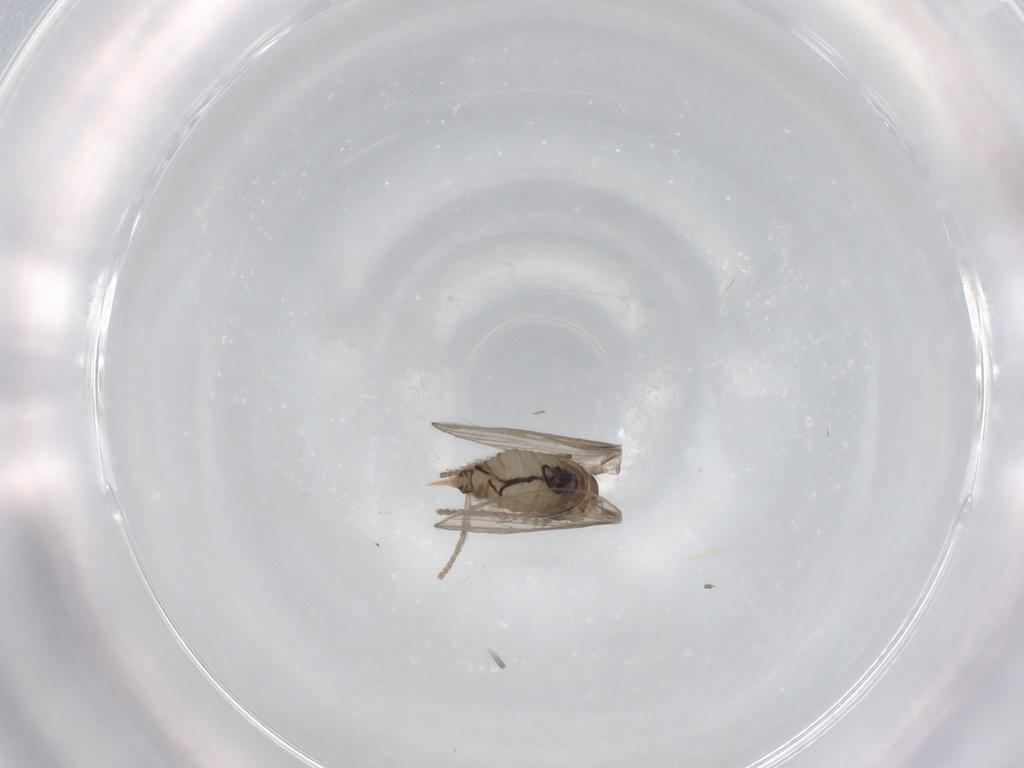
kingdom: Animalia
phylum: Arthropoda
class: Insecta
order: Diptera
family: Psychodidae
